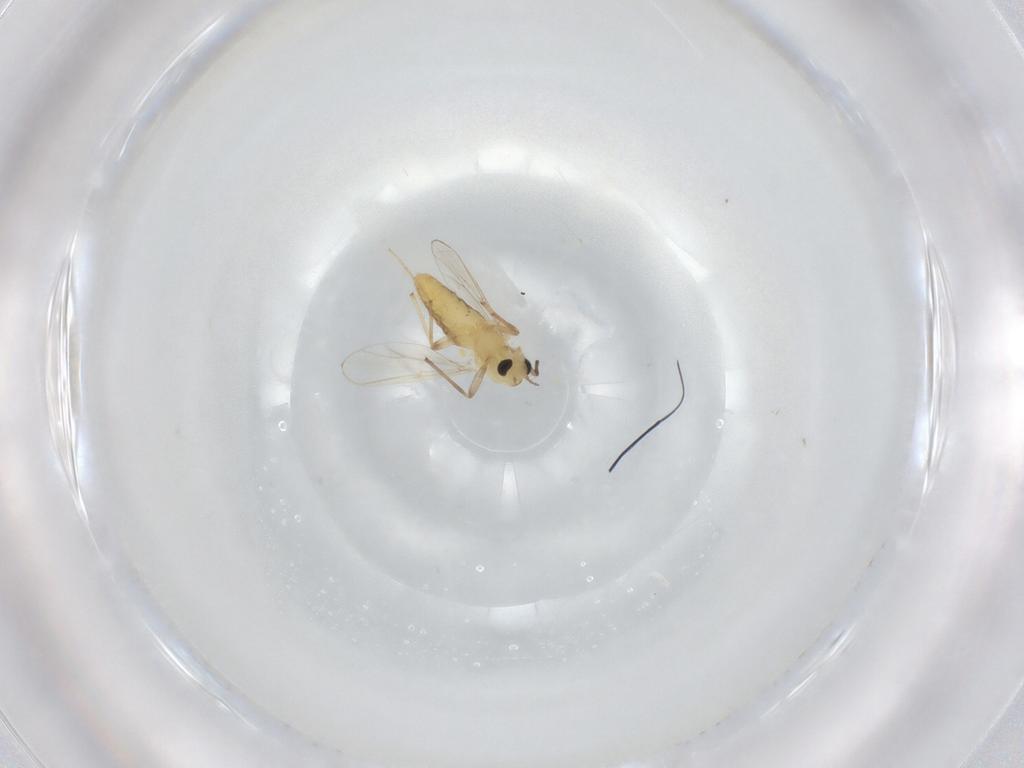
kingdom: Animalia
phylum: Arthropoda
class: Insecta
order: Diptera
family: Chironomidae
